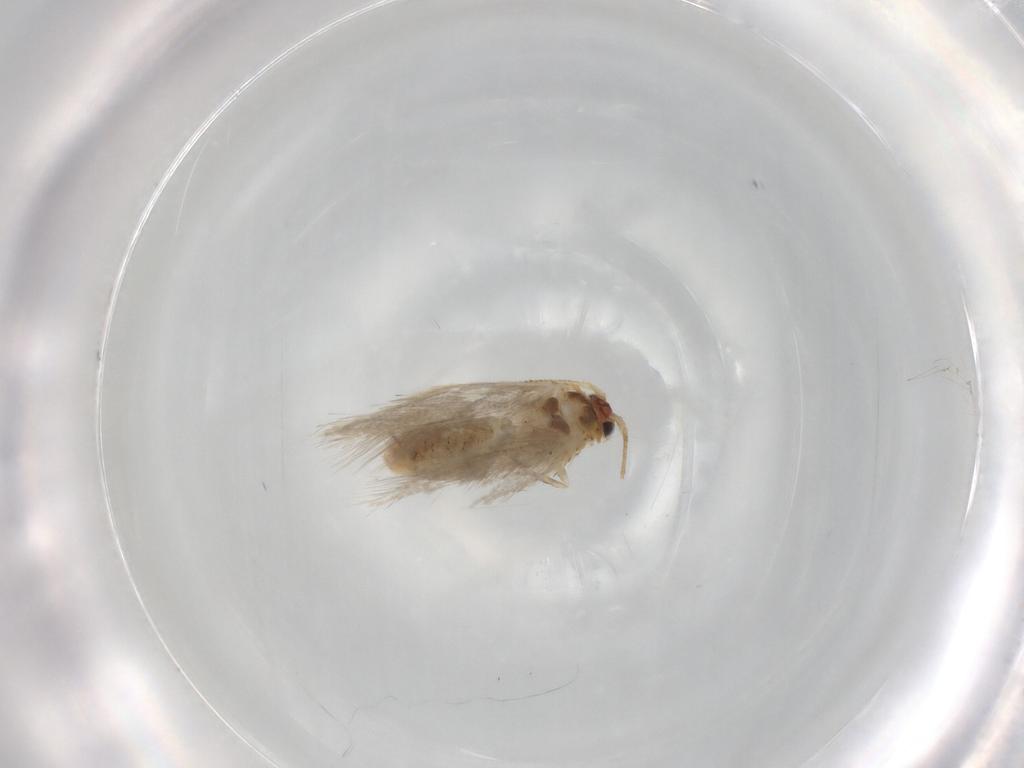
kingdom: Animalia
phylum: Arthropoda
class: Insecta
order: Lepidoptera
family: Nepticulidae
